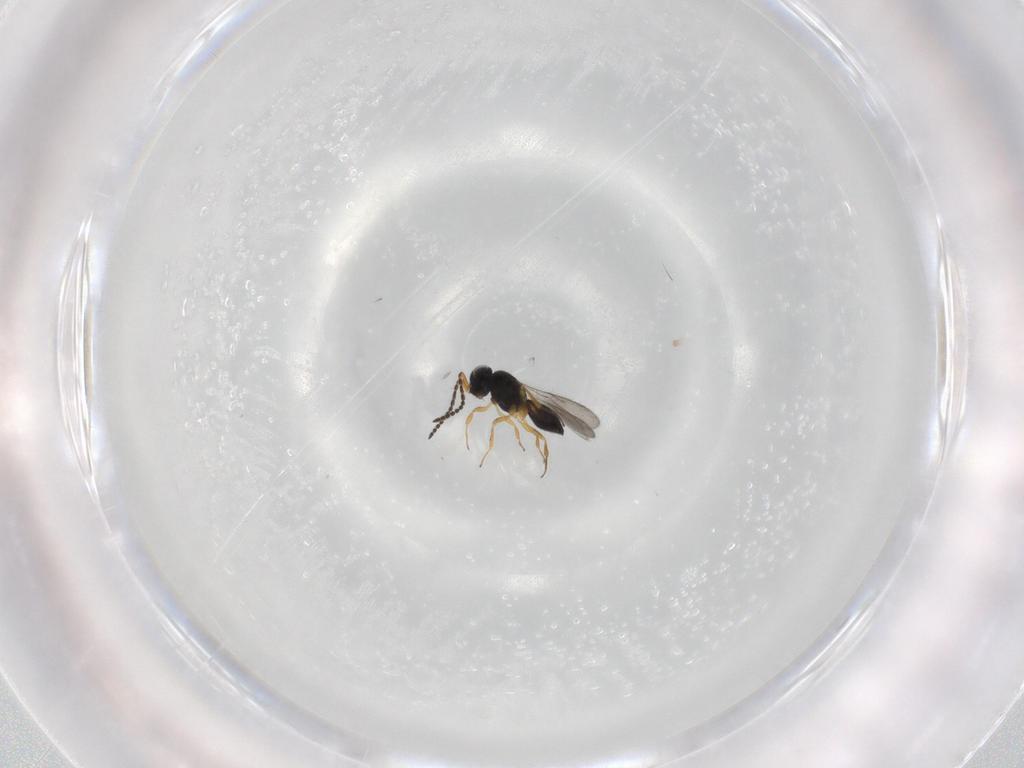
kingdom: Animalia
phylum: Arthropoda
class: Insecta
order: Hymenoptera
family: Scelionidae
